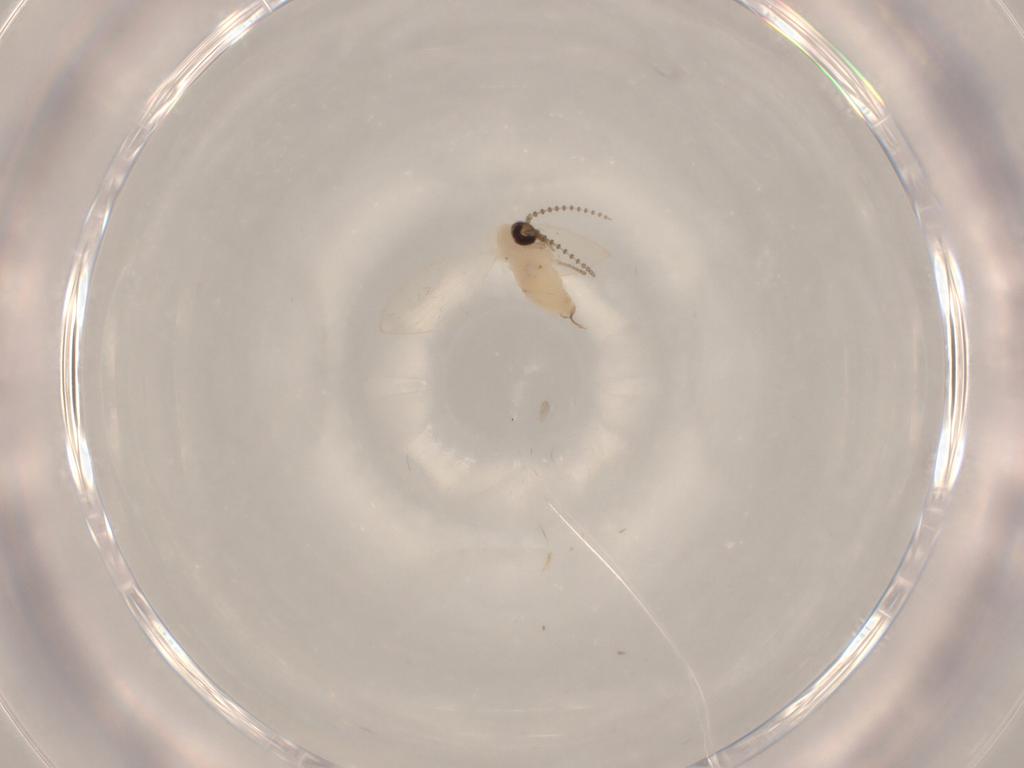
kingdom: Animalia
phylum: Arthropoda
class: Insecta
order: Diptera
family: Psychodidae
